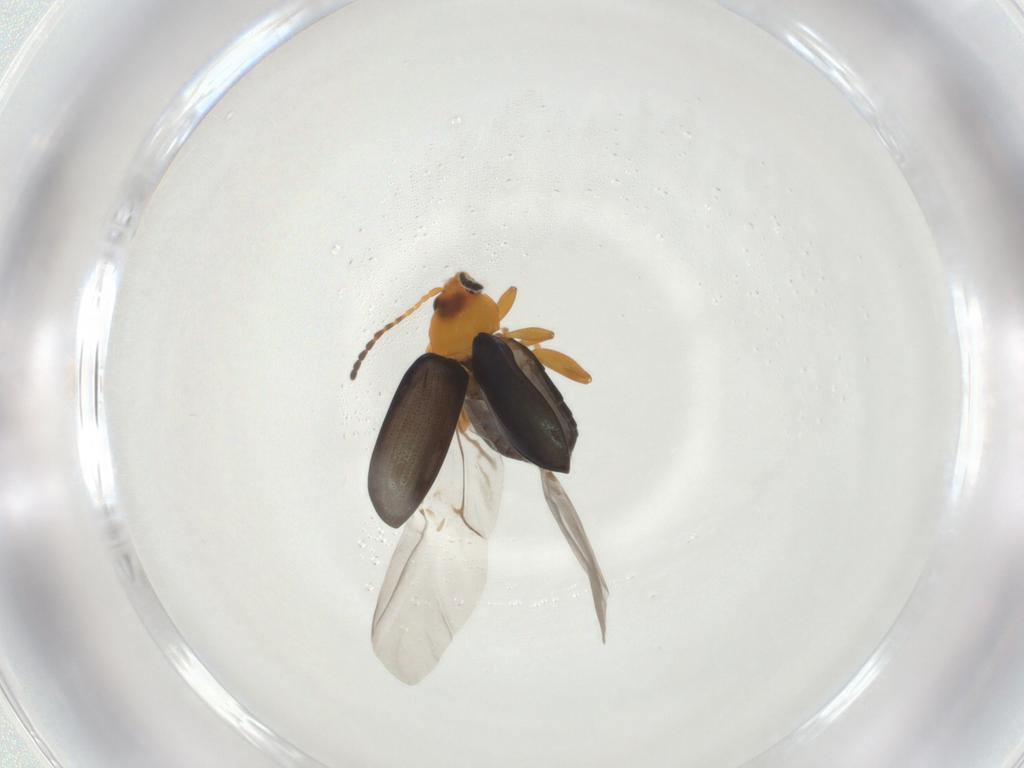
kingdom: Animalia
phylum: Arthropoda
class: Insecta
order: Coleoptera
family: Chrysomelidae
